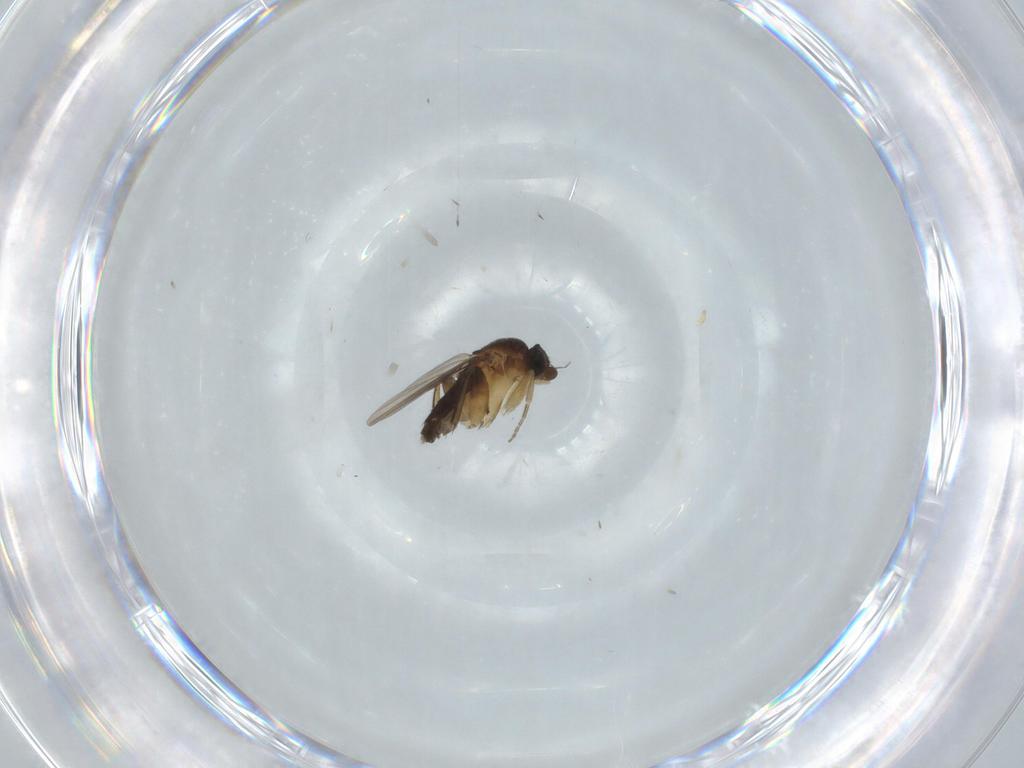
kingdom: Animalia
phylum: Arthropoda
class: Insecta
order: Diptera
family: Phoridae
